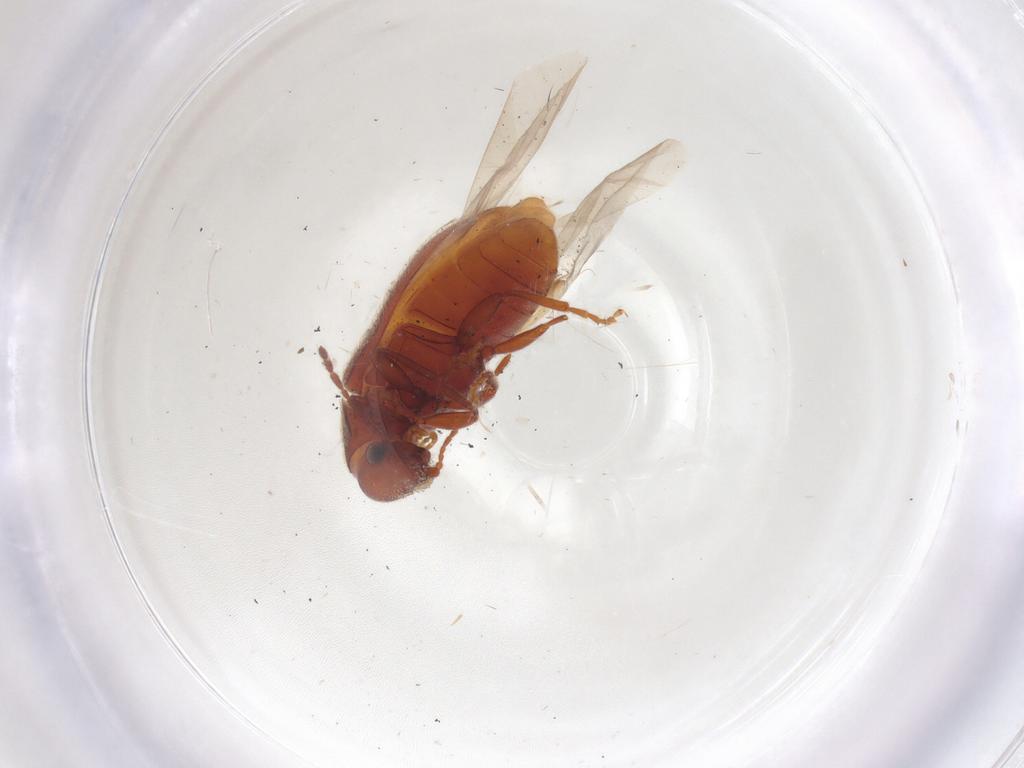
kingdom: Animalia
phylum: Arthropoda
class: Insecta
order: Coleoptera
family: Ptinidae
